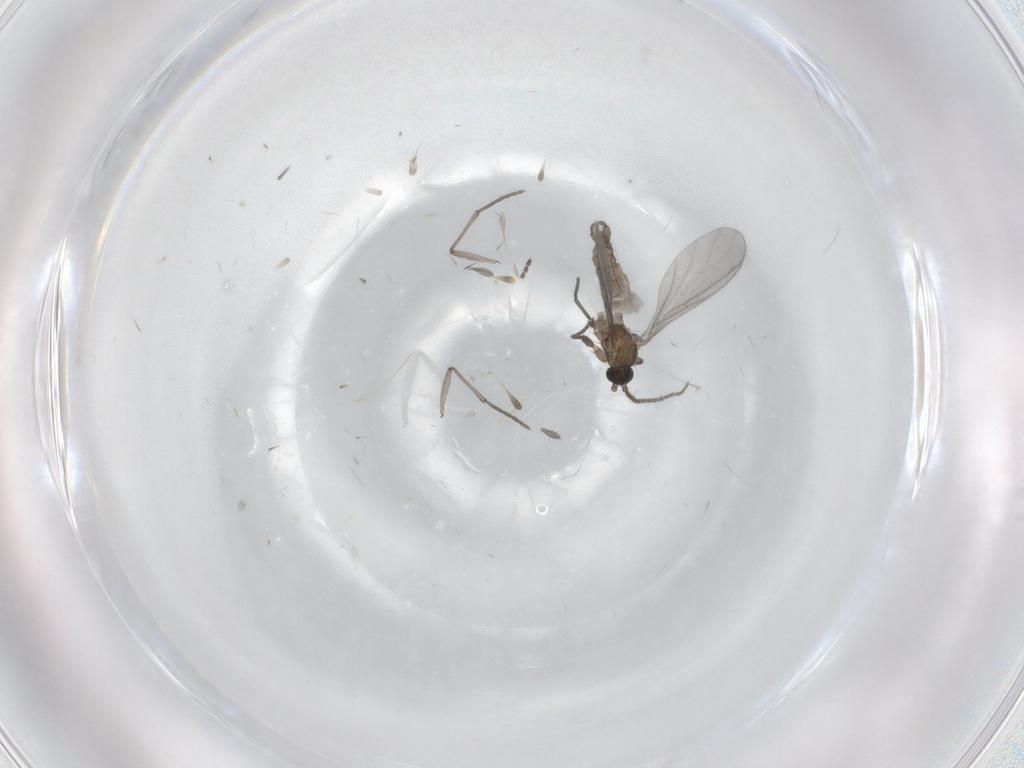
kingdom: Animalia
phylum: Arthropoda
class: Insecta
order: Diptera
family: Sciaridae
